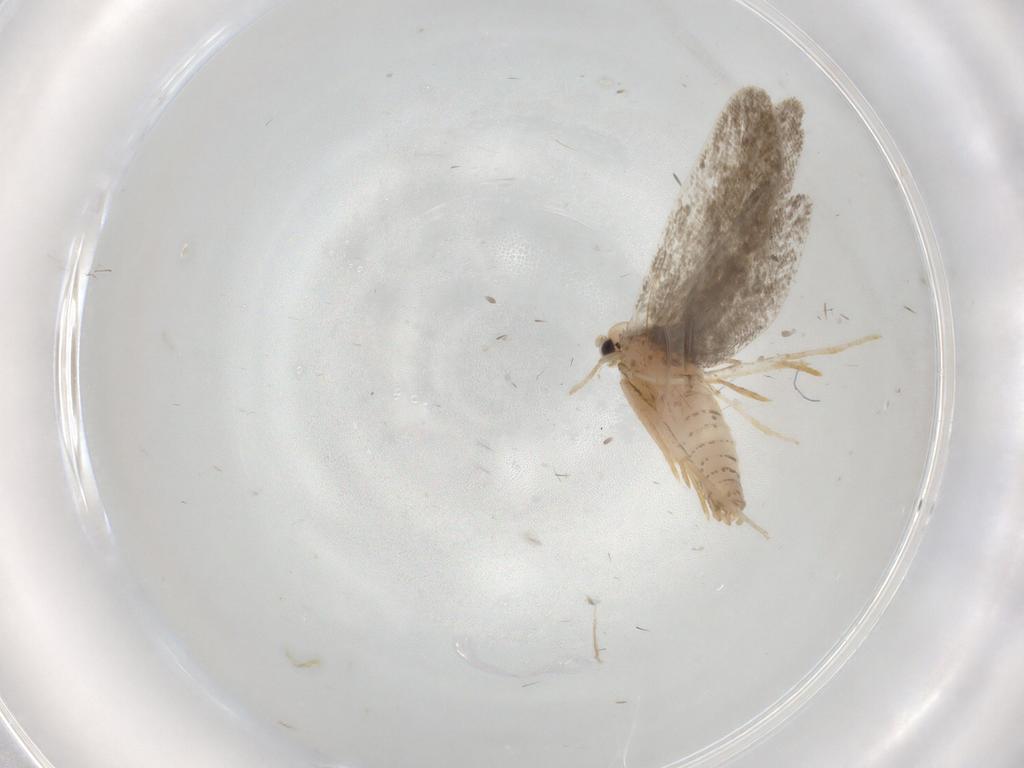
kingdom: Animalia
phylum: Arthropoda
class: Insecta
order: Lepidoptera
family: Psychidae
